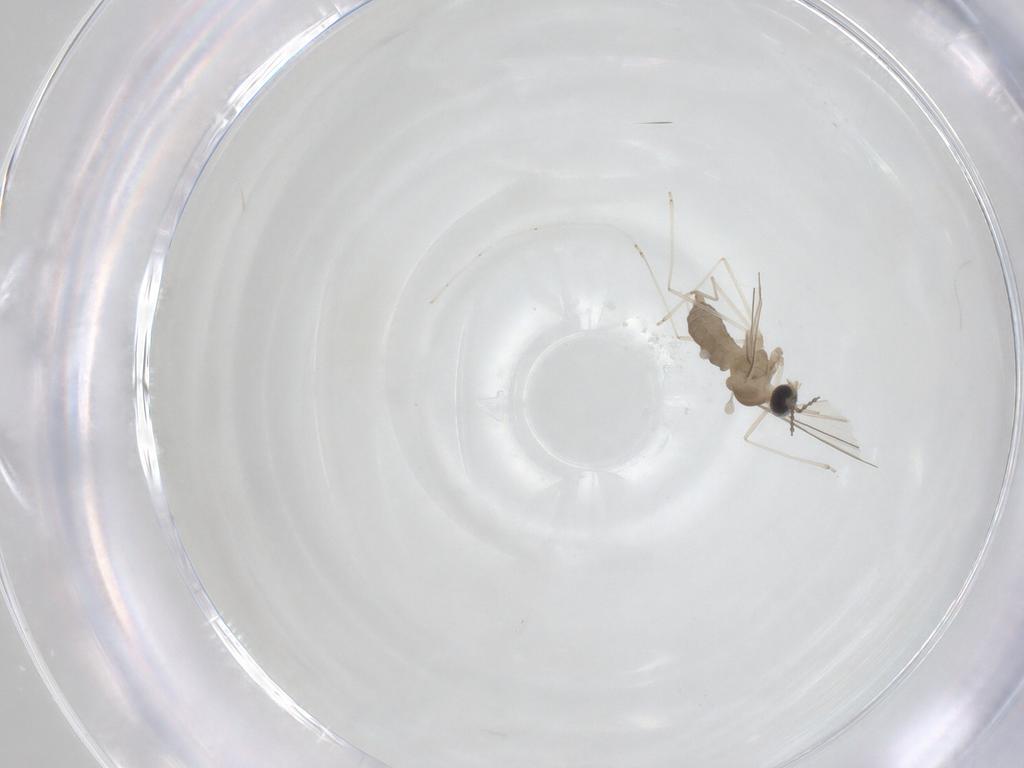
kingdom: Animalia
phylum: Arthropoda
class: Insecta
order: Diptera
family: Cecidomyiidae
